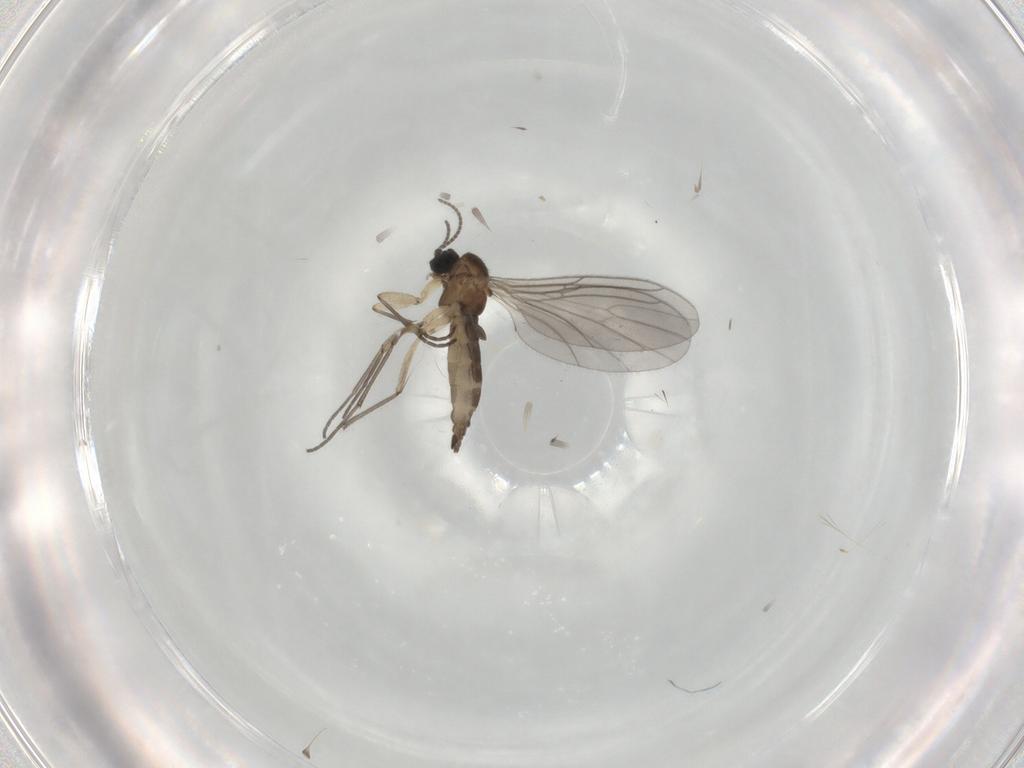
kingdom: Animalia
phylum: Arthropoda
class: Insecta
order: Diptera
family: Sciaridae
